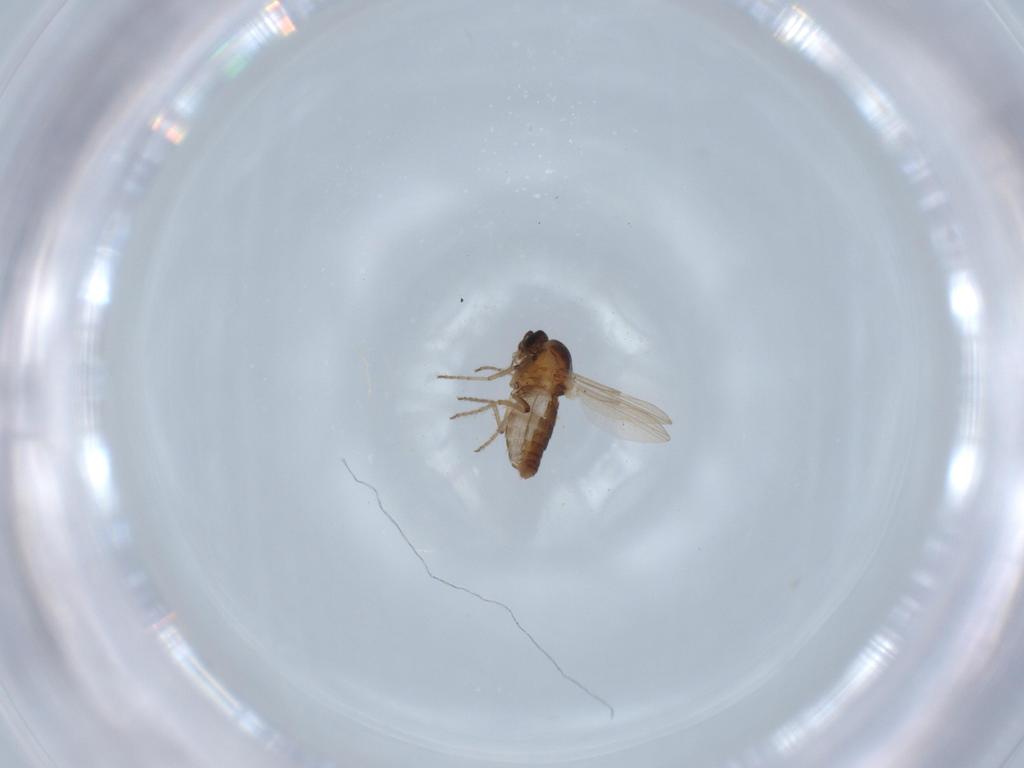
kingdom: Animalia
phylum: Arthropoda
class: Insecta
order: Diptera
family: Ceratopogonidae
